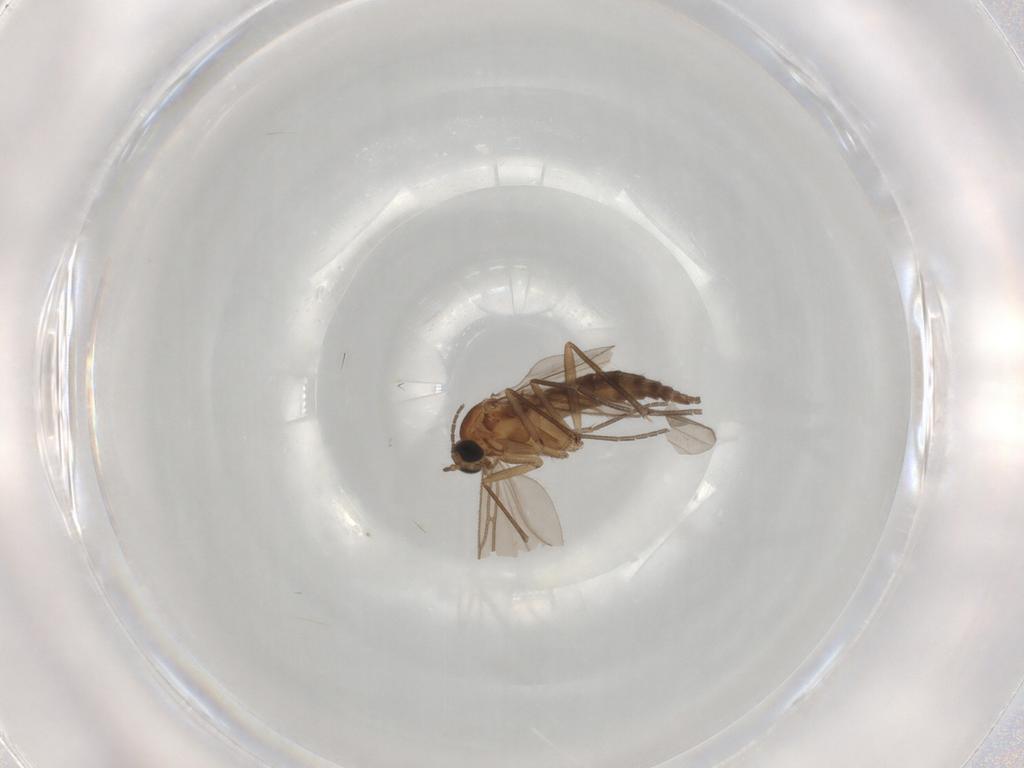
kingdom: Animalia
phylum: Arthropoda
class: Insecta
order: Diptera
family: Sciaridae
